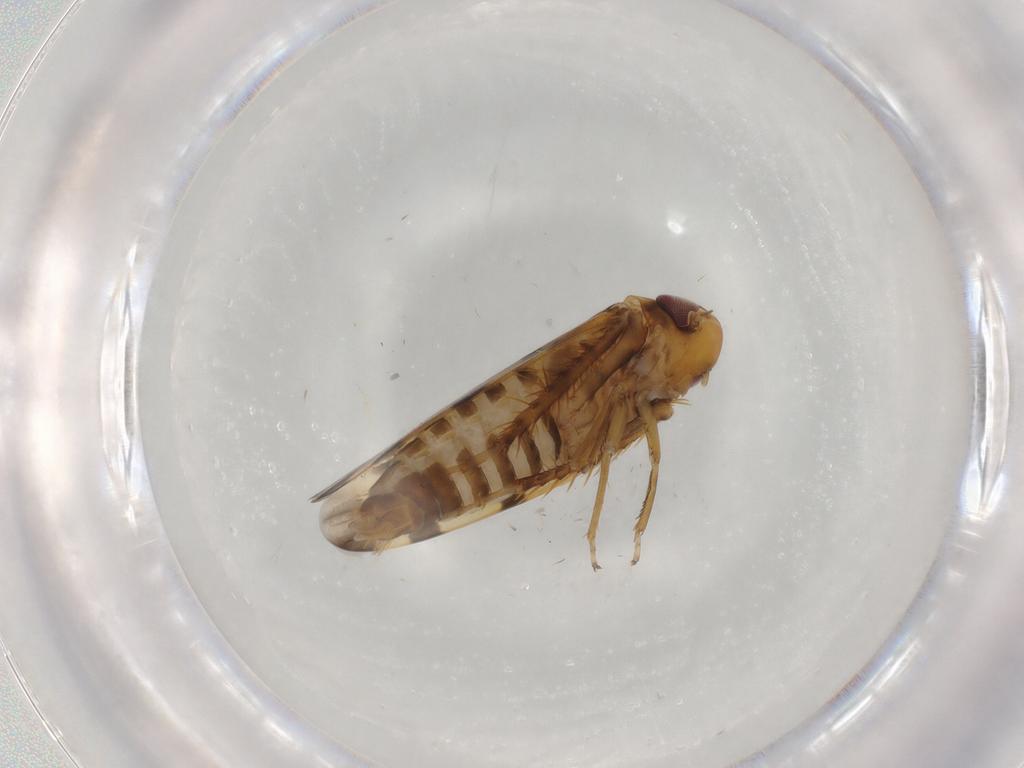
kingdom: Animalia
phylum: Arthropoda
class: Insecta
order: Hemiptera
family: Cicadellidae
